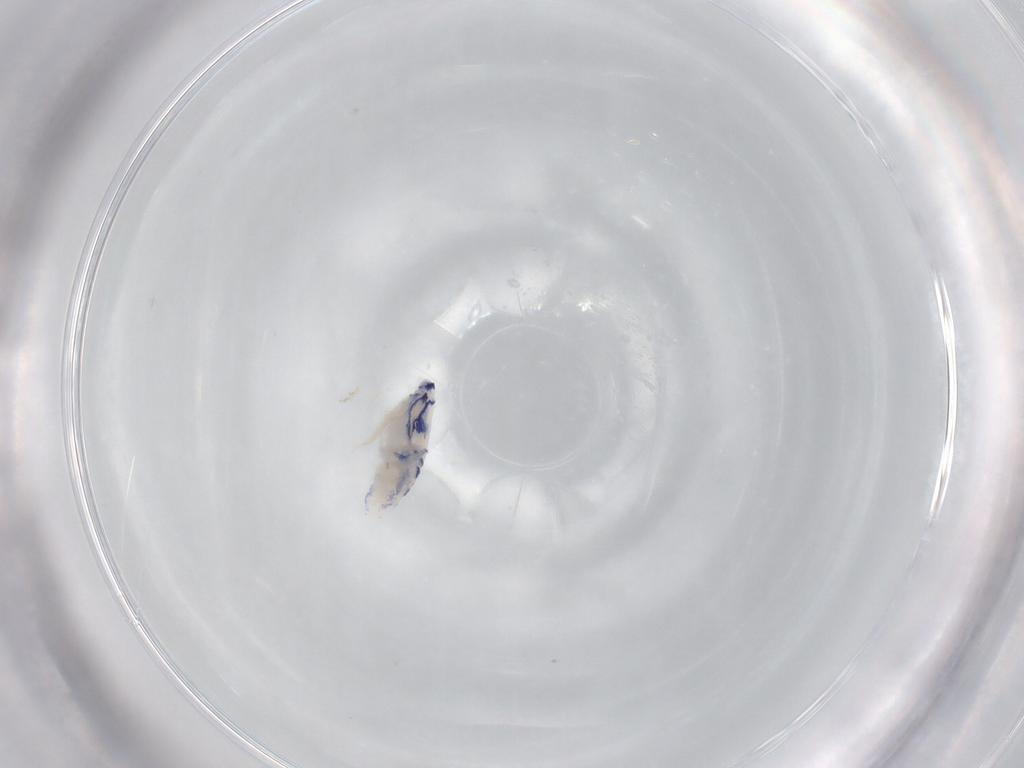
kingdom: Animalia
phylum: Arthropoda
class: Collembola
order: Entomobryomorpha
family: Entomobryidae
